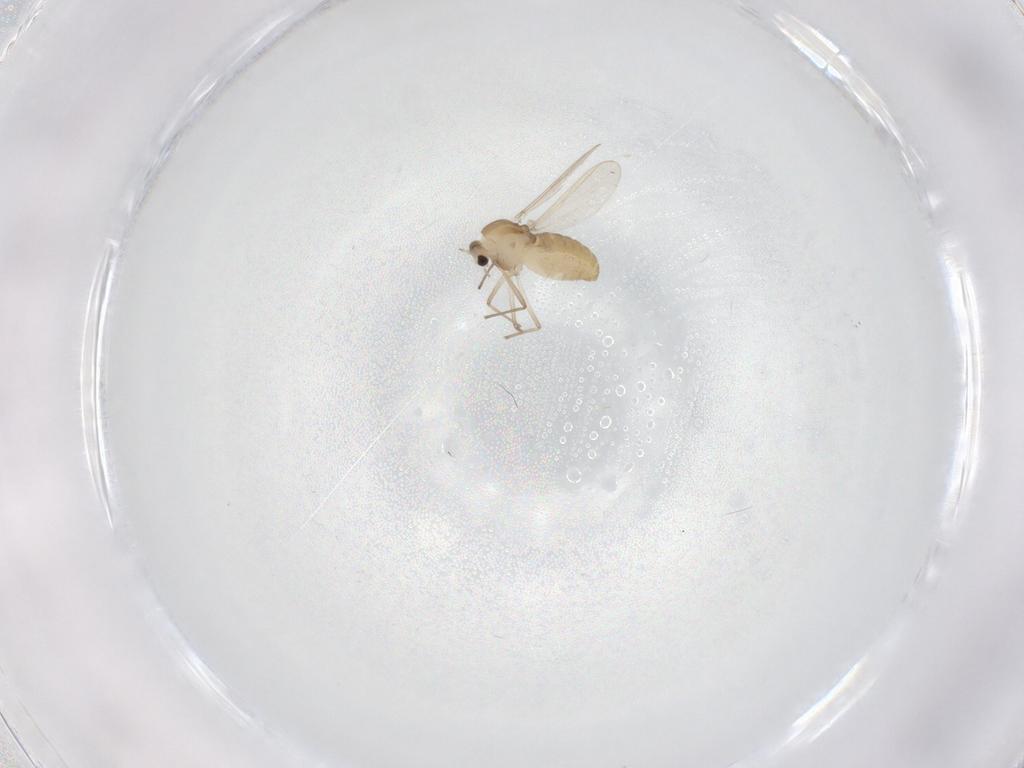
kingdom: Animalia
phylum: Arthropoda
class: Insecta
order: Diptera
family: Chironomidae
